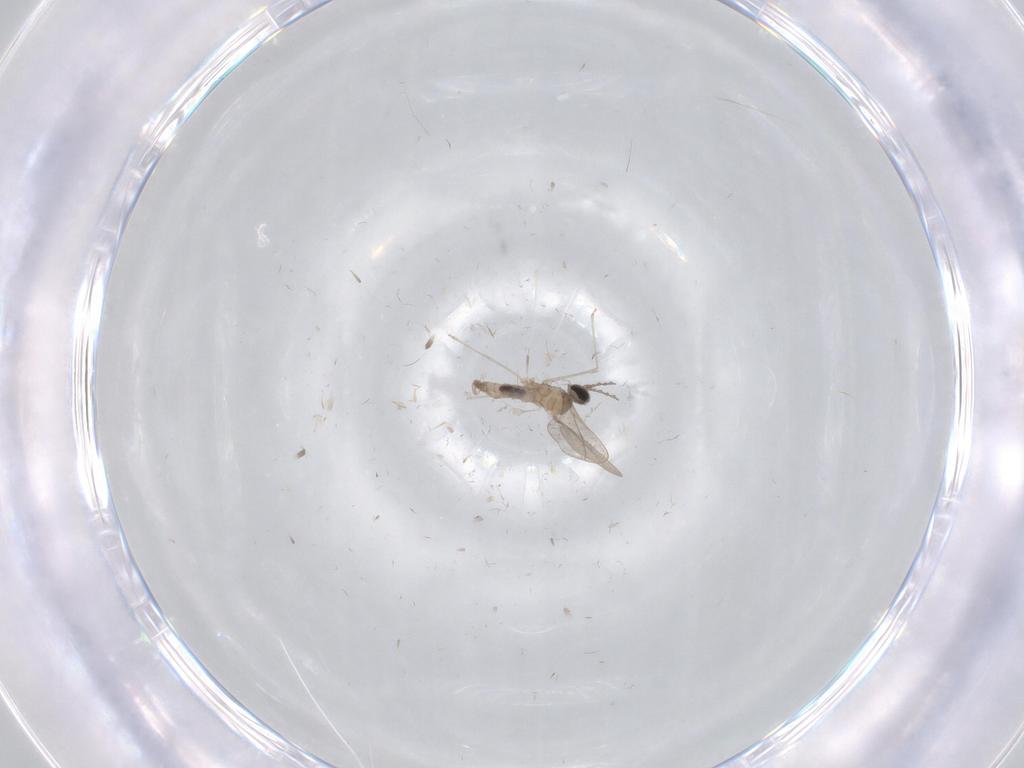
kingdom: Animalia
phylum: Arthropoda
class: Insecta
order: Diptera
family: Cecidomyiidae
